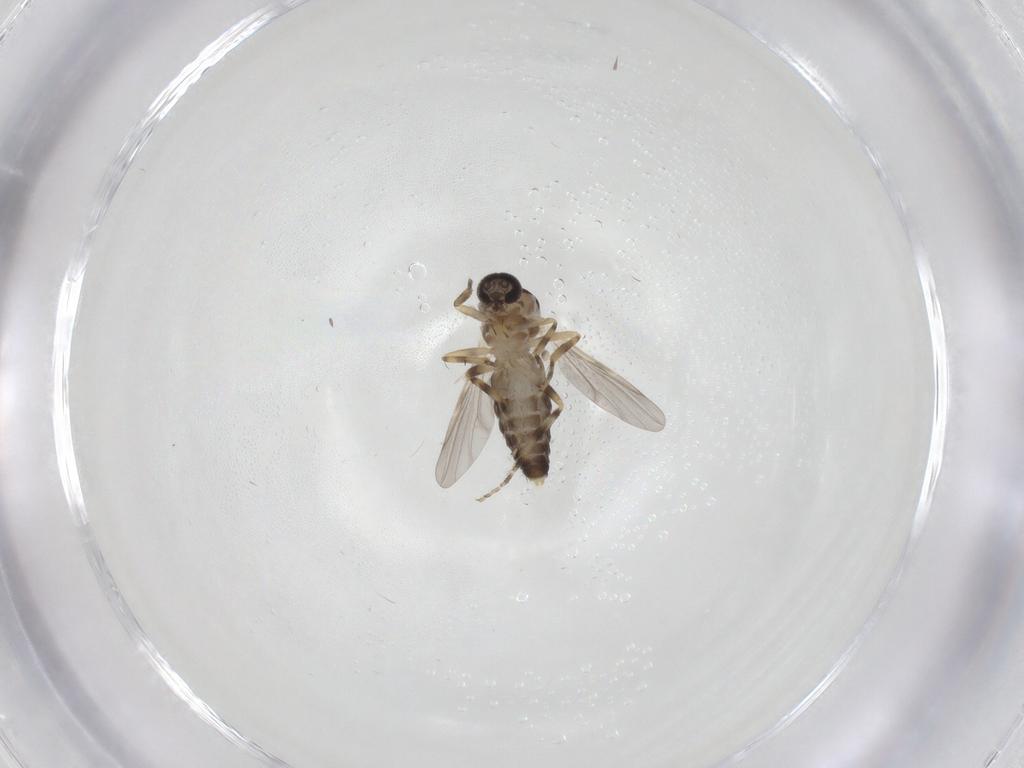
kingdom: Animalia
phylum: Arthropoda
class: Insecta
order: Diptera
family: Ceratopogonidae
